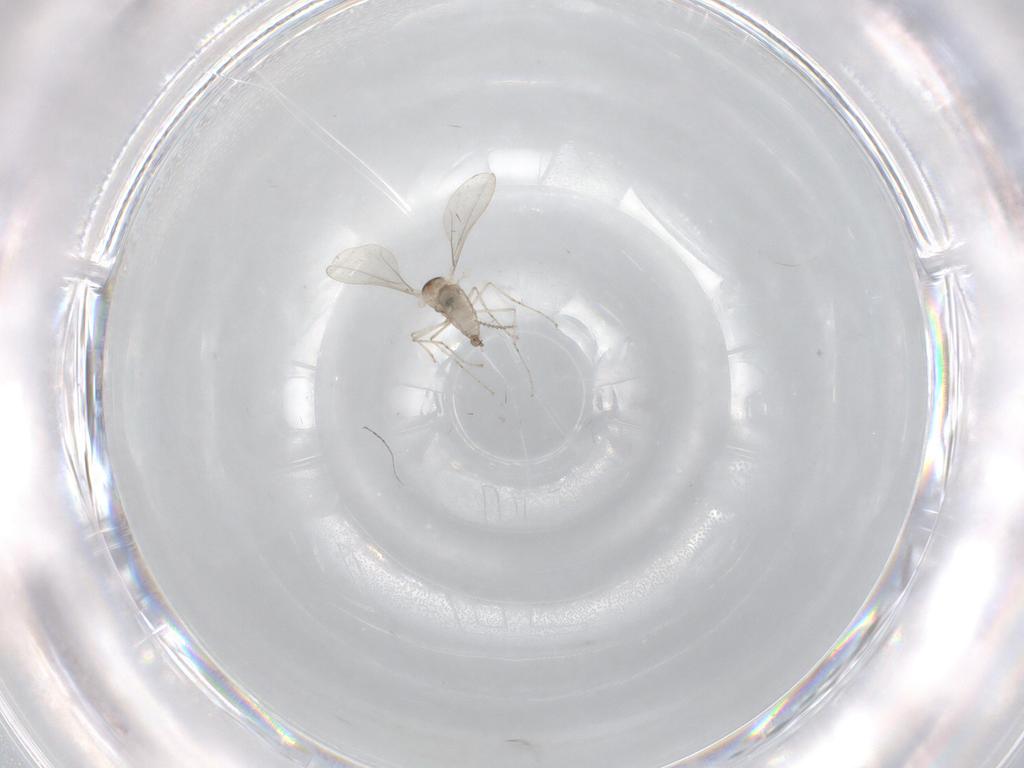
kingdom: Animalia
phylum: Arthropoda
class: Insecta
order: Diptera
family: Cecidomyiidae
